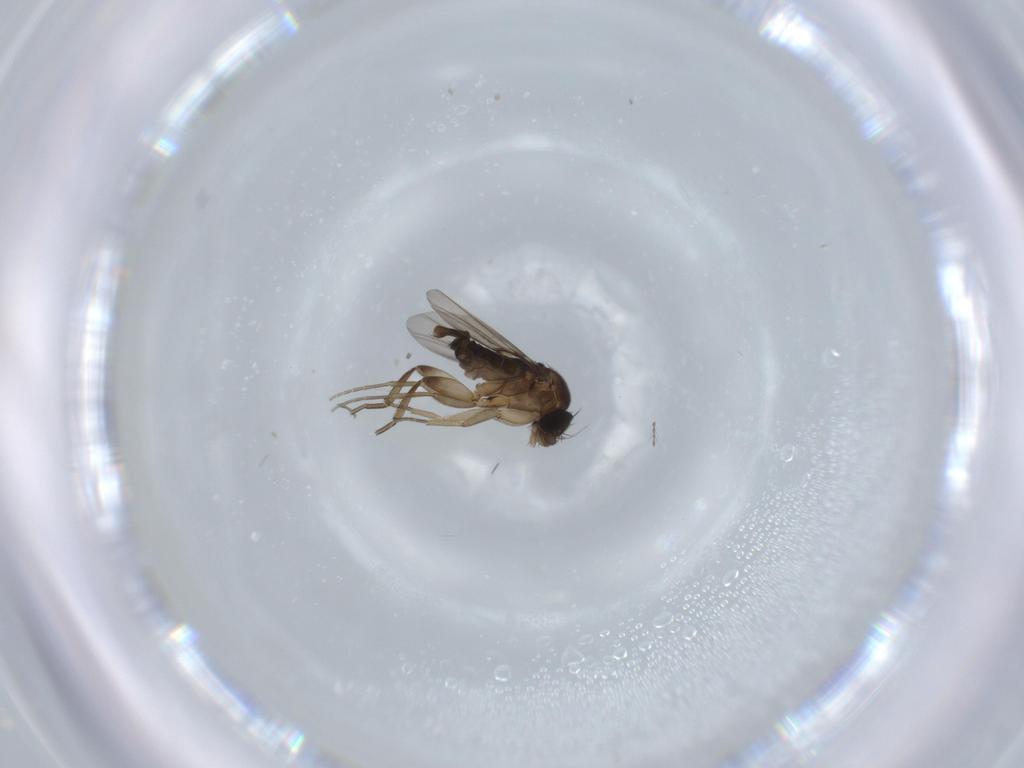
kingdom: Animalia
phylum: Arthropoda
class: Insecta
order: Diptera
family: Phoridae
